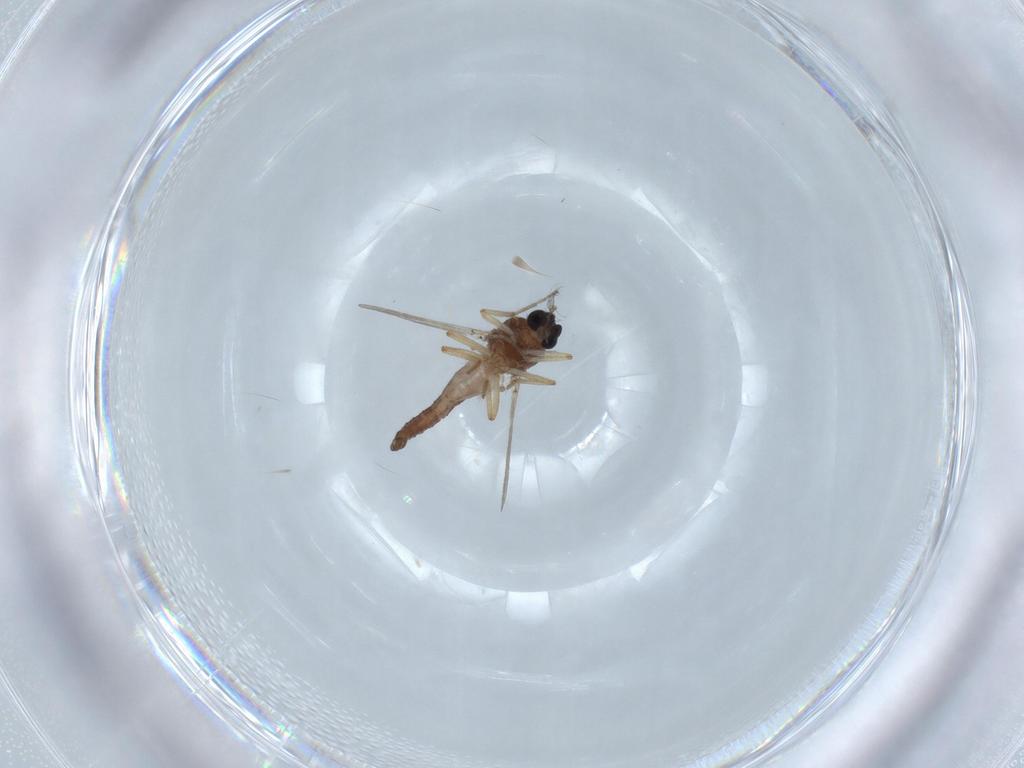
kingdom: Animalia
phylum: Arthropoda
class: Insecta
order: Diptera
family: Ceratopogonidae
